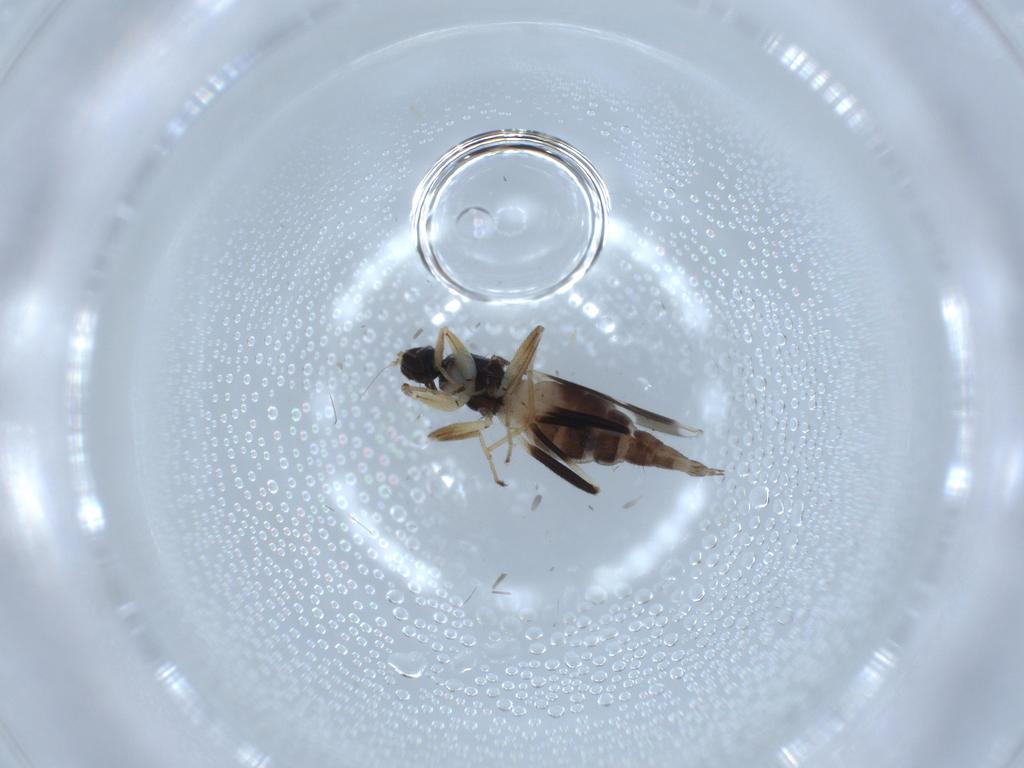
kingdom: Animalia
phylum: Arthropoda
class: Insecta
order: Diptera
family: Hybotidae
